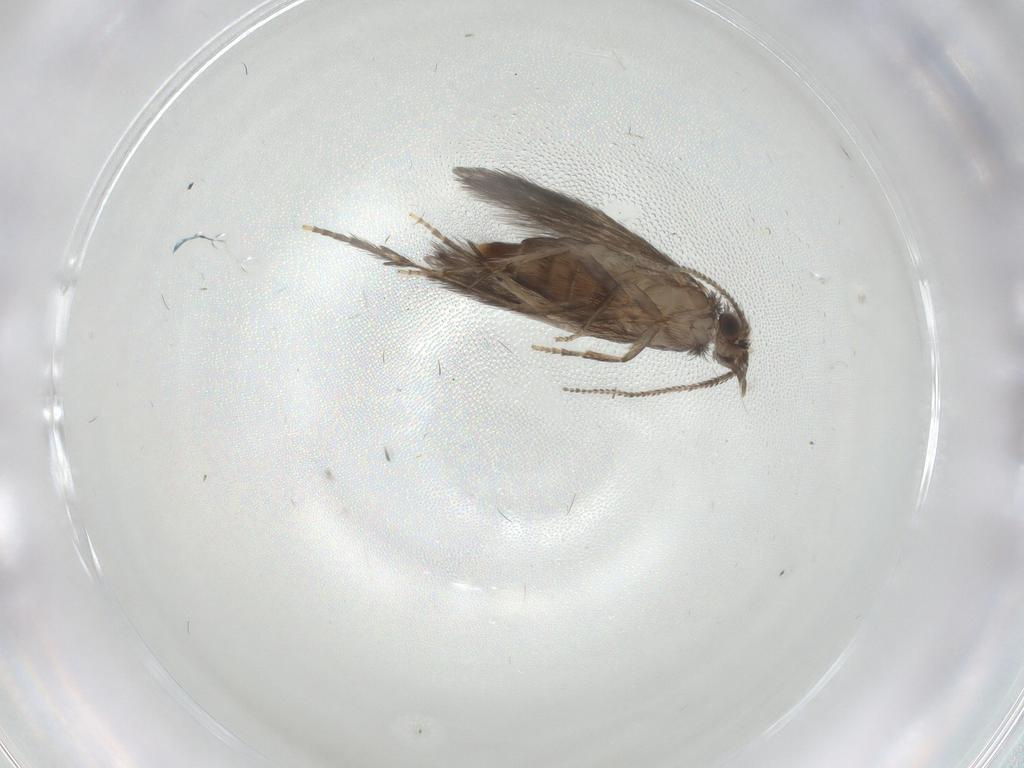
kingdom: Animalia
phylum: Arthropoda
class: Insecta
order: Trichoptera
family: Hydroptilidae
